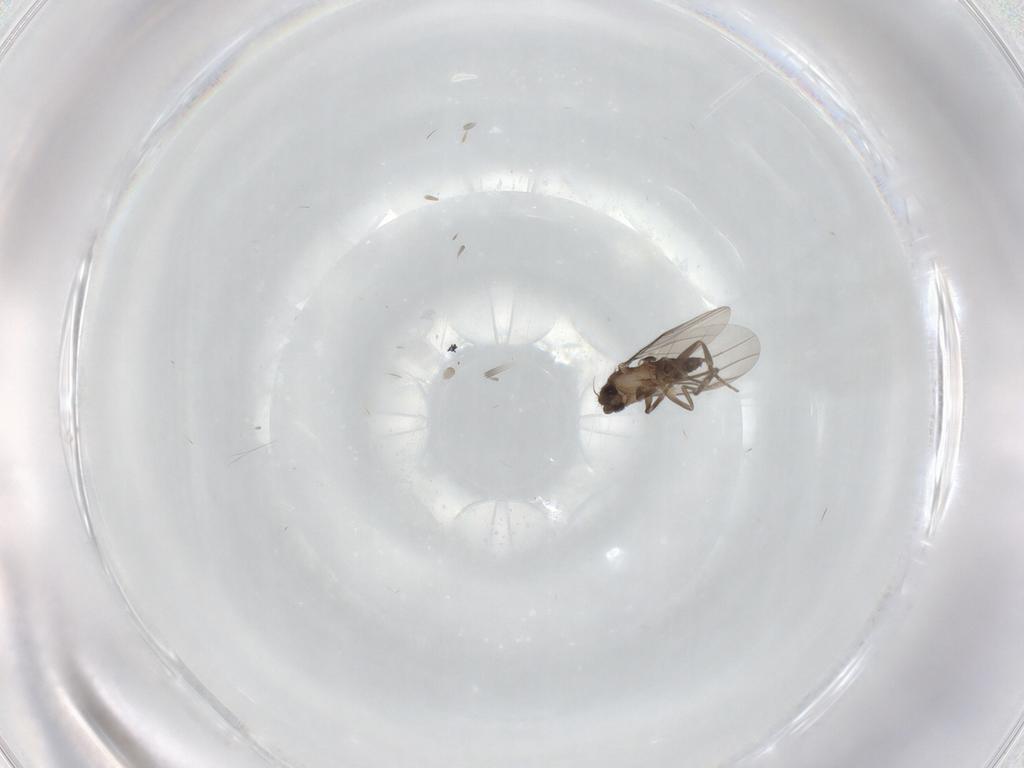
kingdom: Animalia
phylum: Arthropoda
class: Insecta
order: Diptera
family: Phoridae
